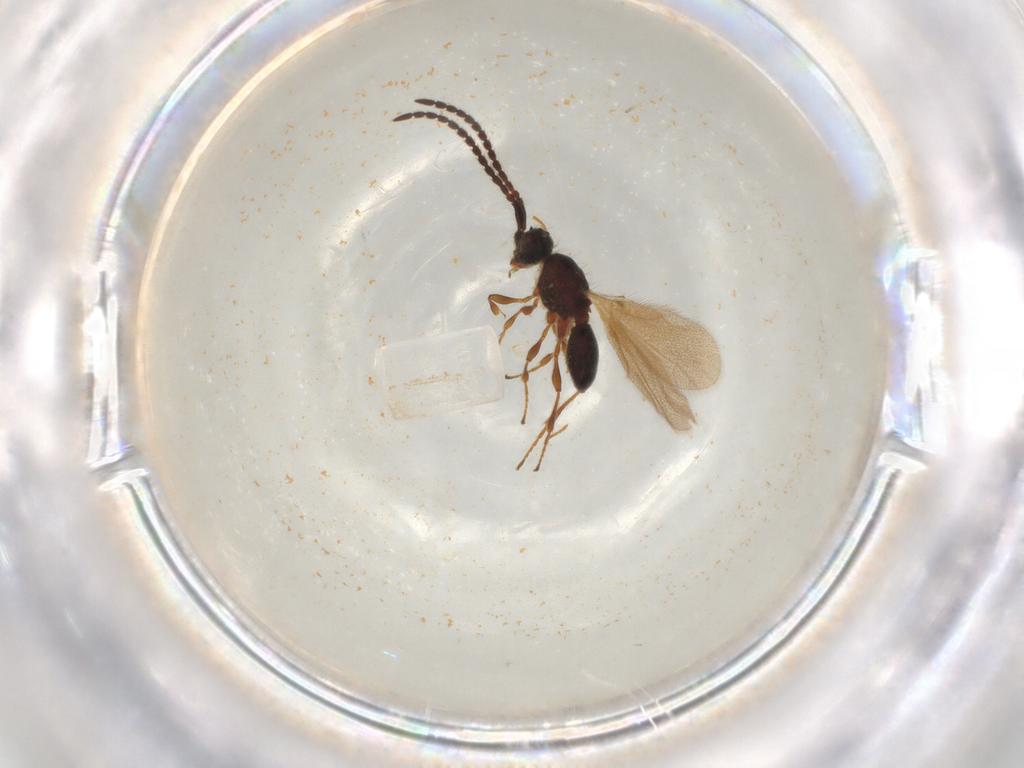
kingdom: Animalia
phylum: Arthropoda
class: Insecta
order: Hymenoptera
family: Diapriidae
